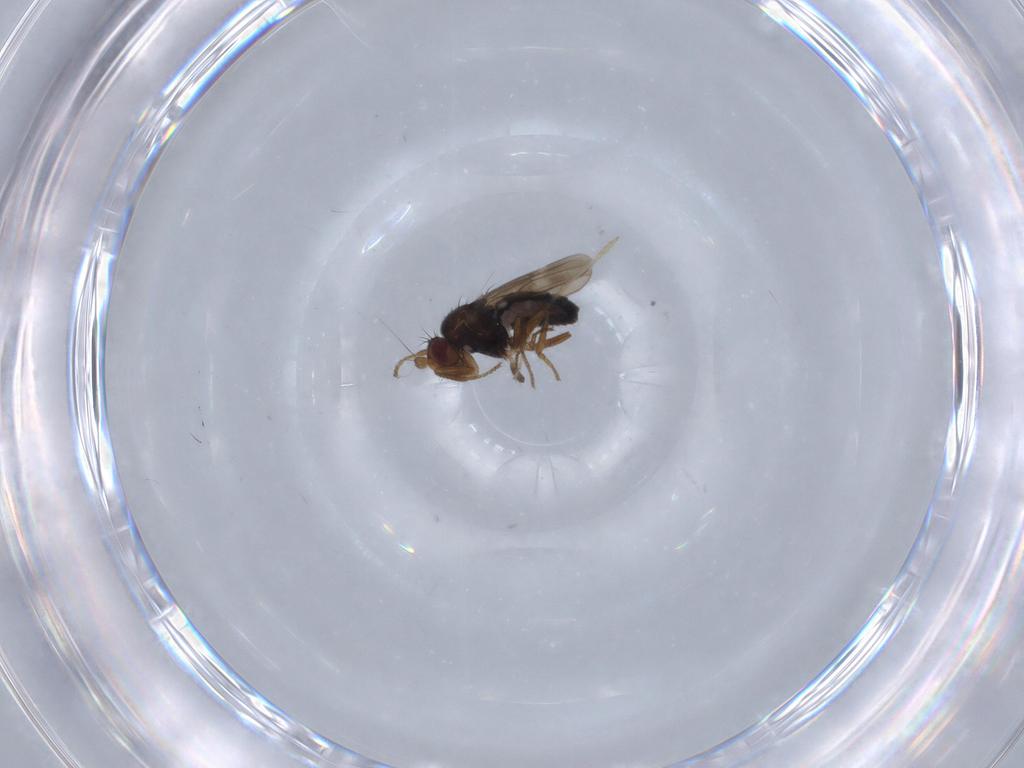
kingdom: Animalia
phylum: Arthropoda
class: Insecta
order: Diptera
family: Sphaeroceridae
